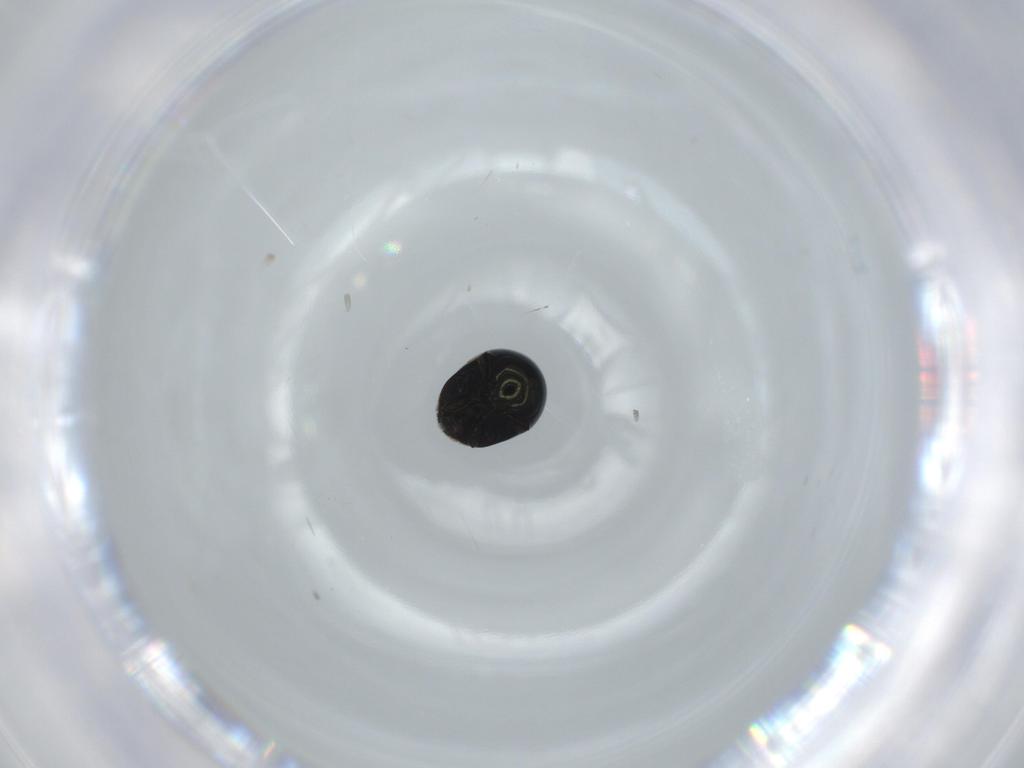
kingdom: Animalia
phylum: Arthropoda
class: Insecta
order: Coleoptera
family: Cybocephalidae
